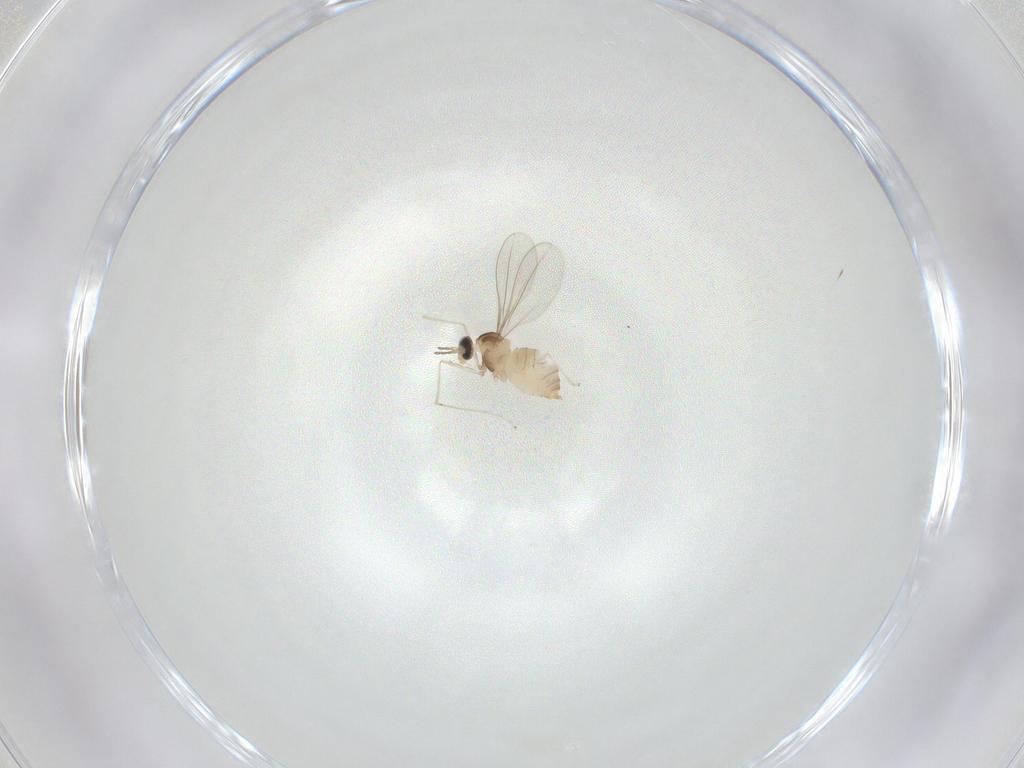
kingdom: Animalia
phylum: Arthropoda
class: Insecta
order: Diptera
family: Cecidomyiidae
